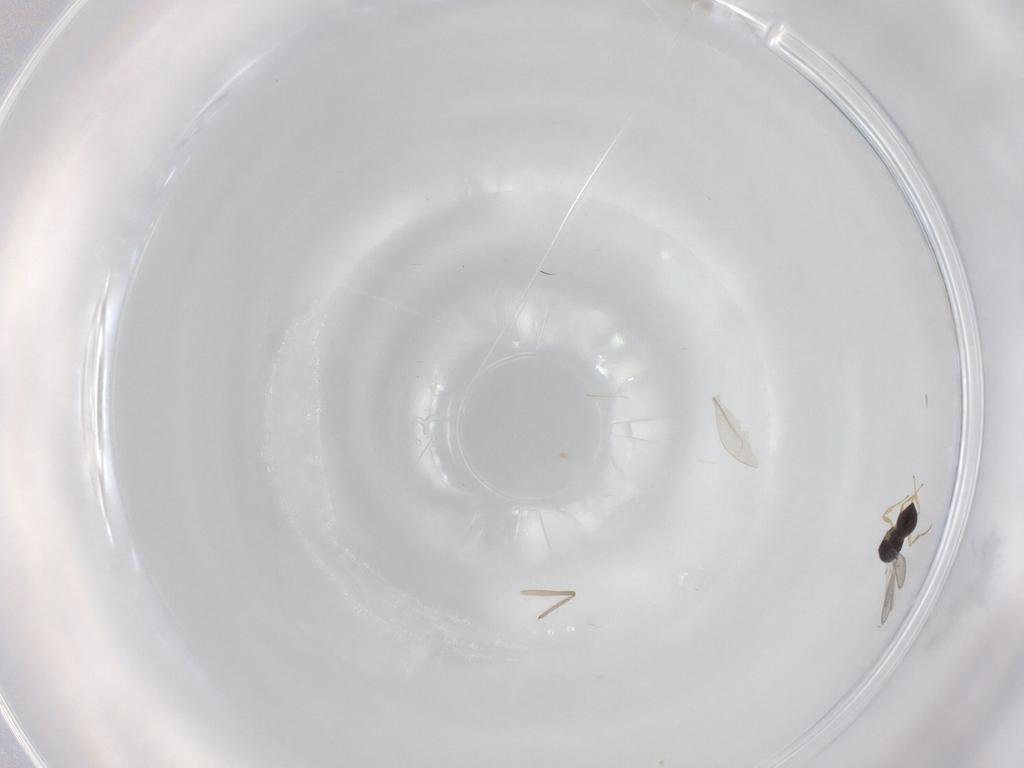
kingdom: Animalia
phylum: Arthropoda
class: Insecta
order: Hymenoptera
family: Scelionidae
